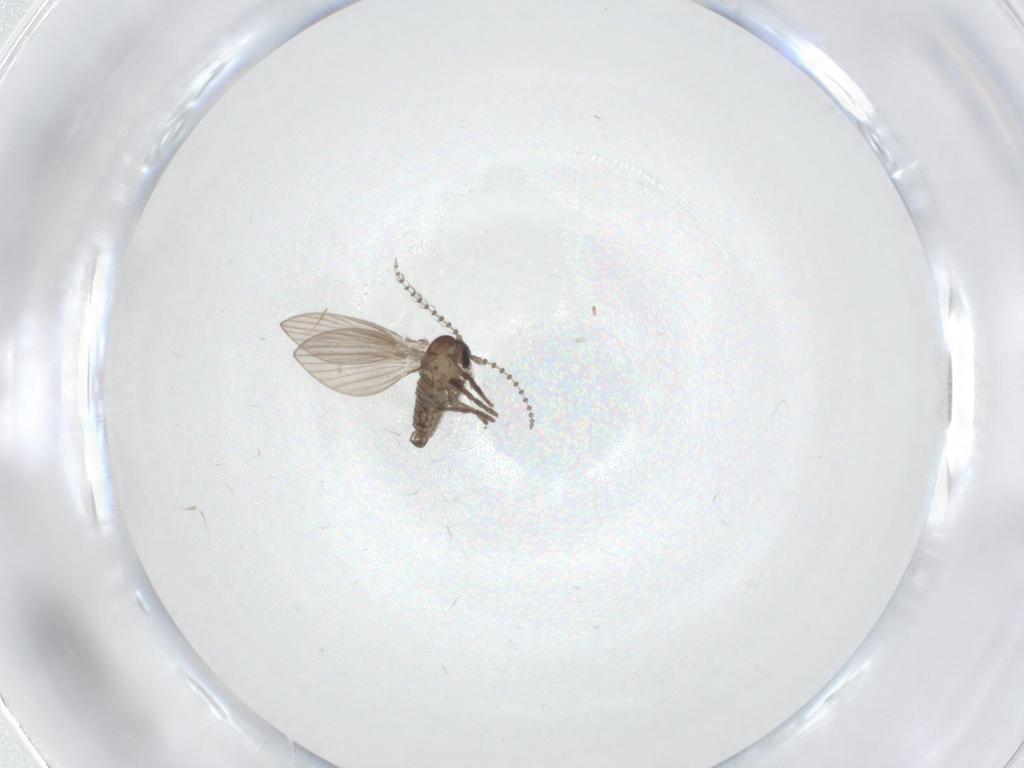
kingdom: Animalia
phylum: Arthropoda
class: Insecta
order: Diptera
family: Psychodidae
